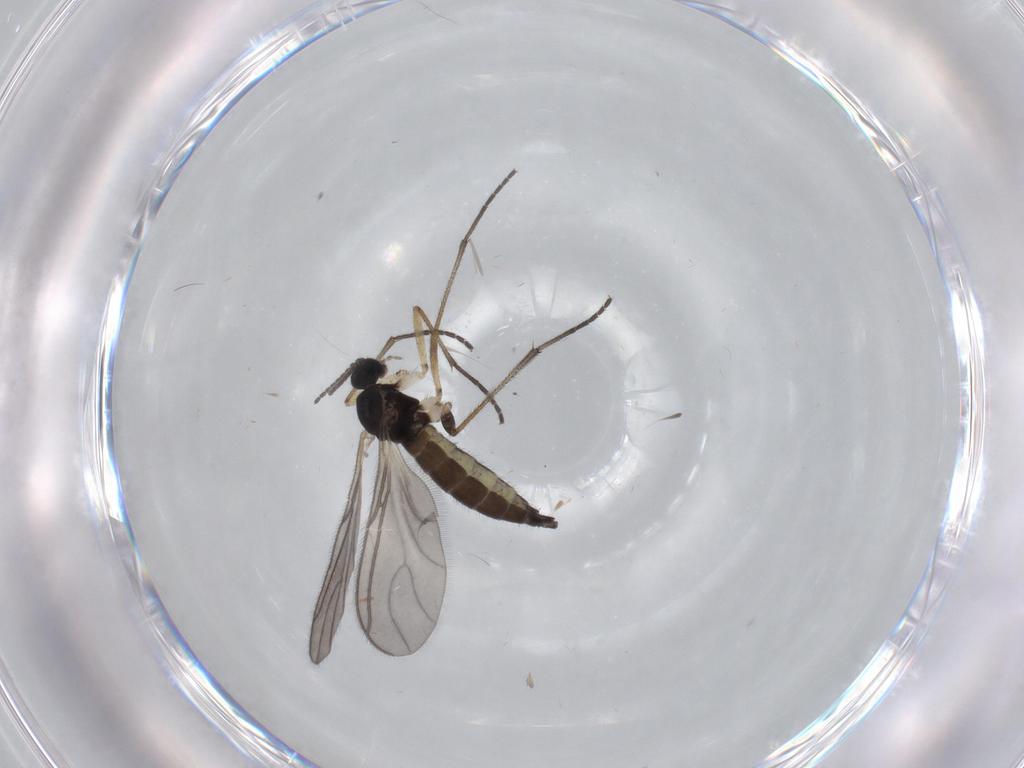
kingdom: Animalia
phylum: Arthropoda
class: Insecta
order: Diptera
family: Sciaridae
